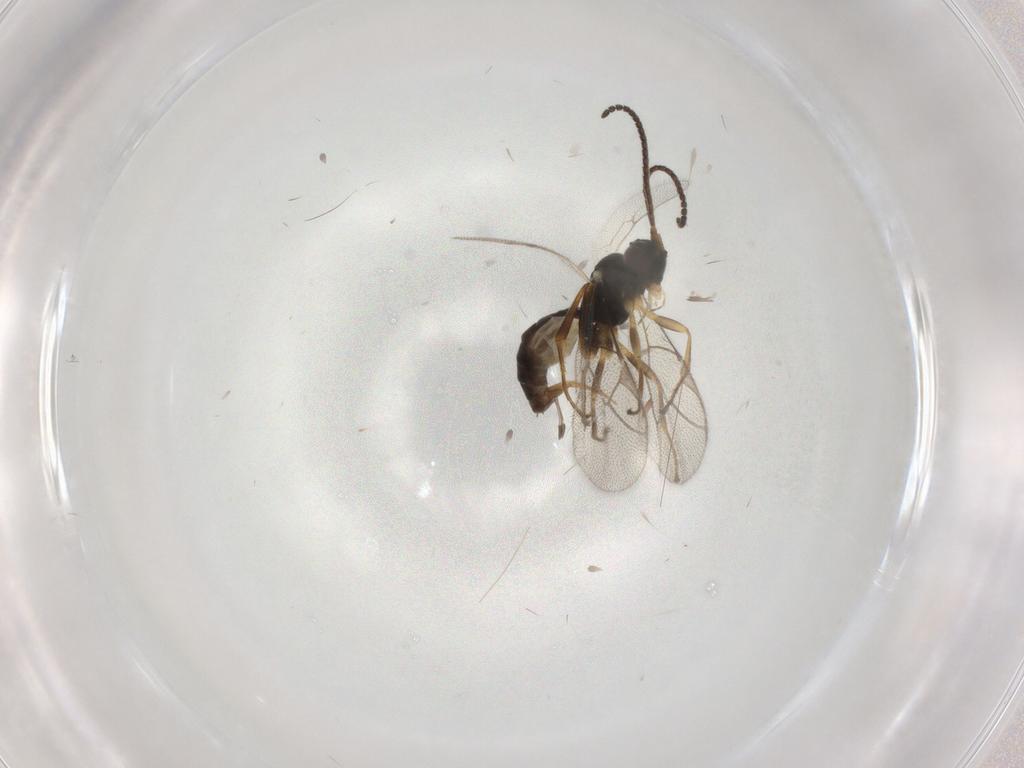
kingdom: Animalia
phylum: Arthropoda
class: Insecta
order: Hymenoptera
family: Ichneumonidae
